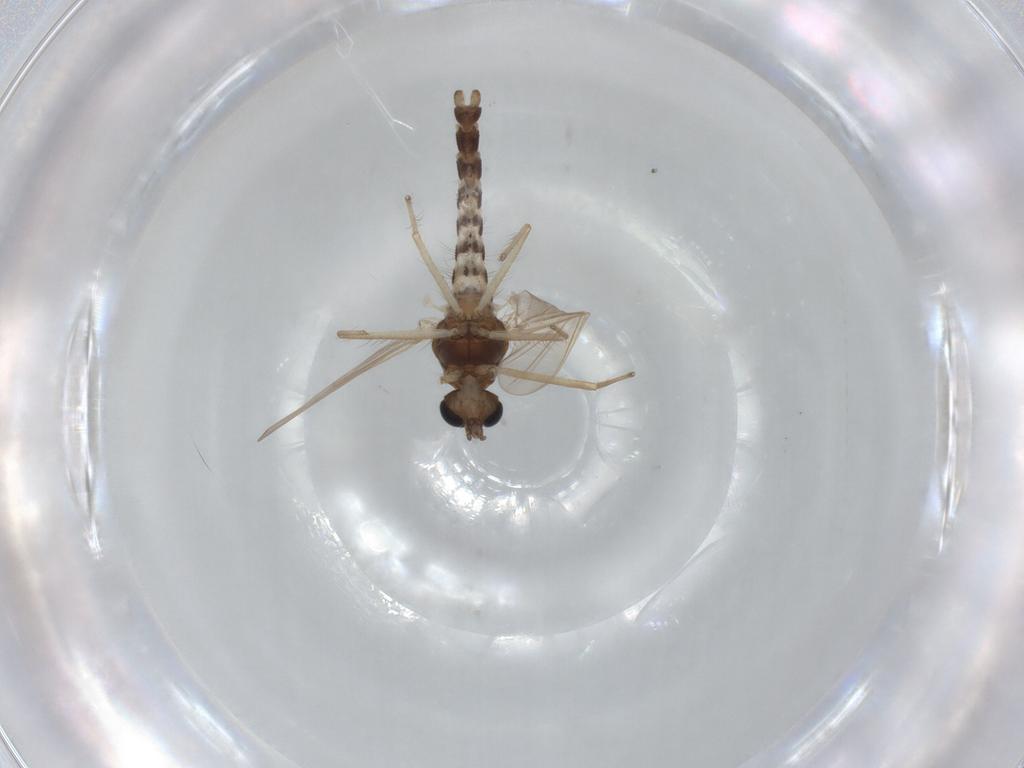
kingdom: Animalia
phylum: Arthropoda
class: Insecta
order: Diptera
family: Chironomidae
